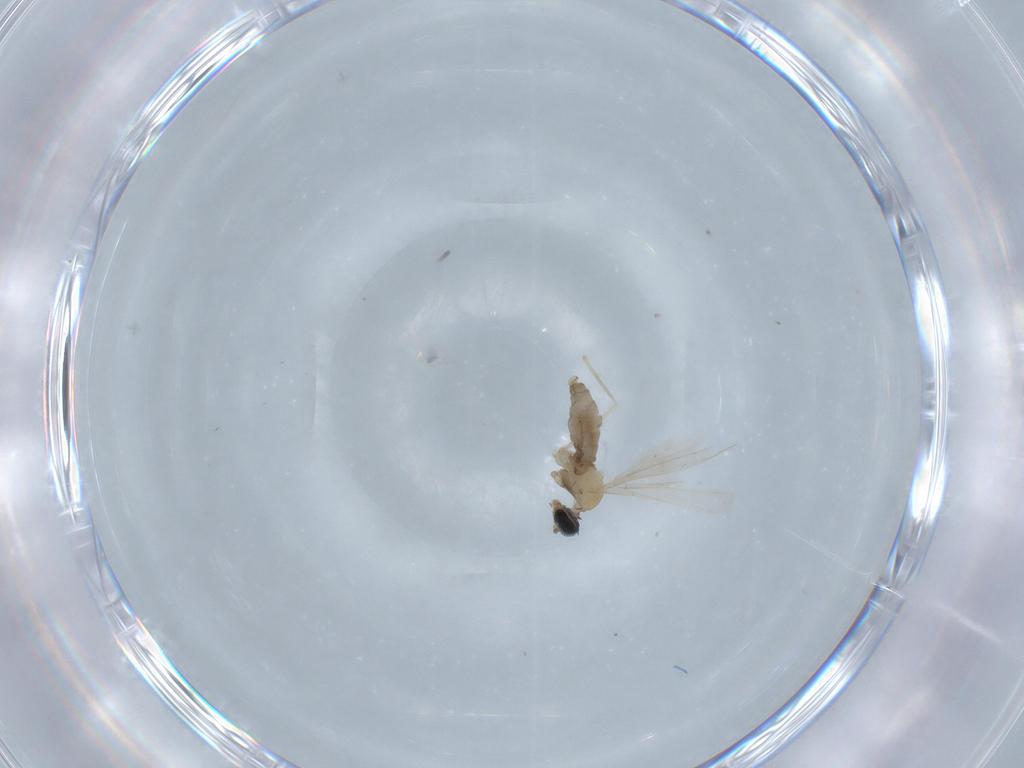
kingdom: Animalia
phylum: Arthropoda
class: Insecta
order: Diptera
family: Cecidomyiidae
